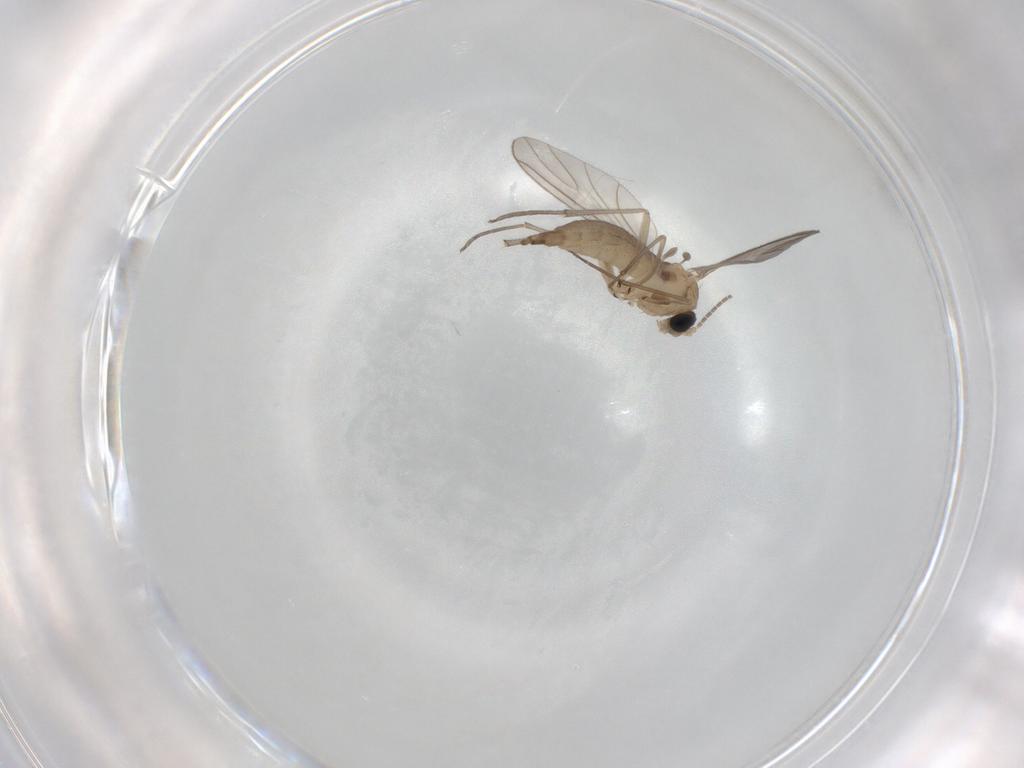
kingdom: Animalia
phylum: Arthropoda
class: Insecta
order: Diptera
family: Sciaridae
